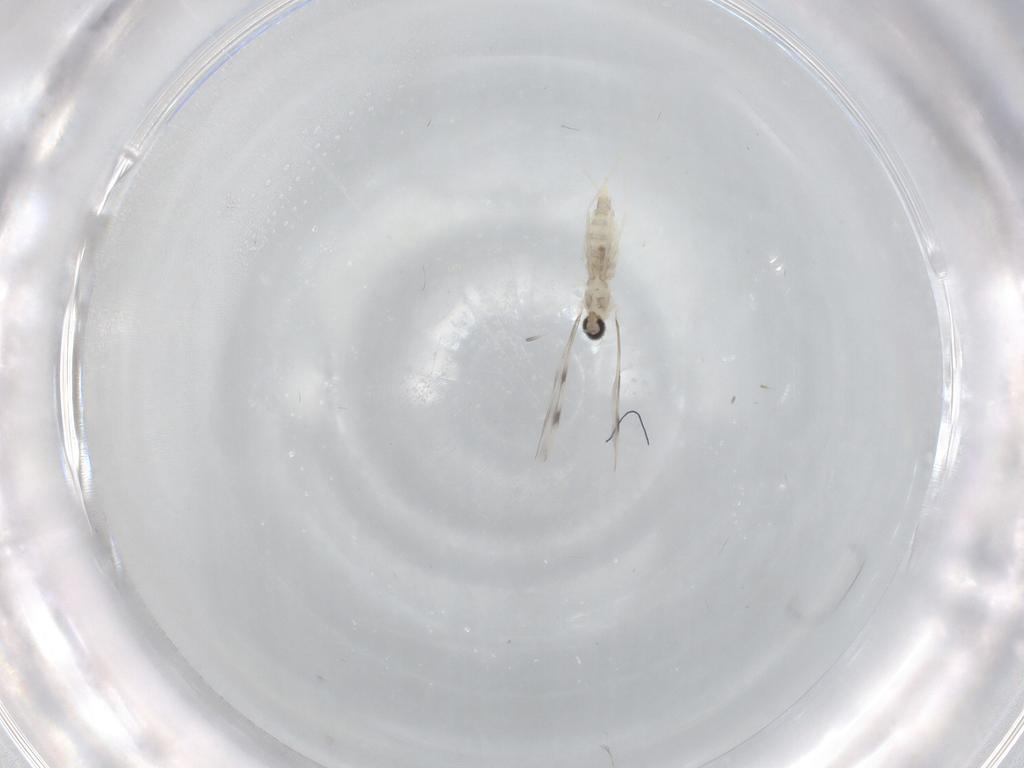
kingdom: Animalia
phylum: Arthropoda
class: Insecta
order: Diptera
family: Cecidomyiidae
